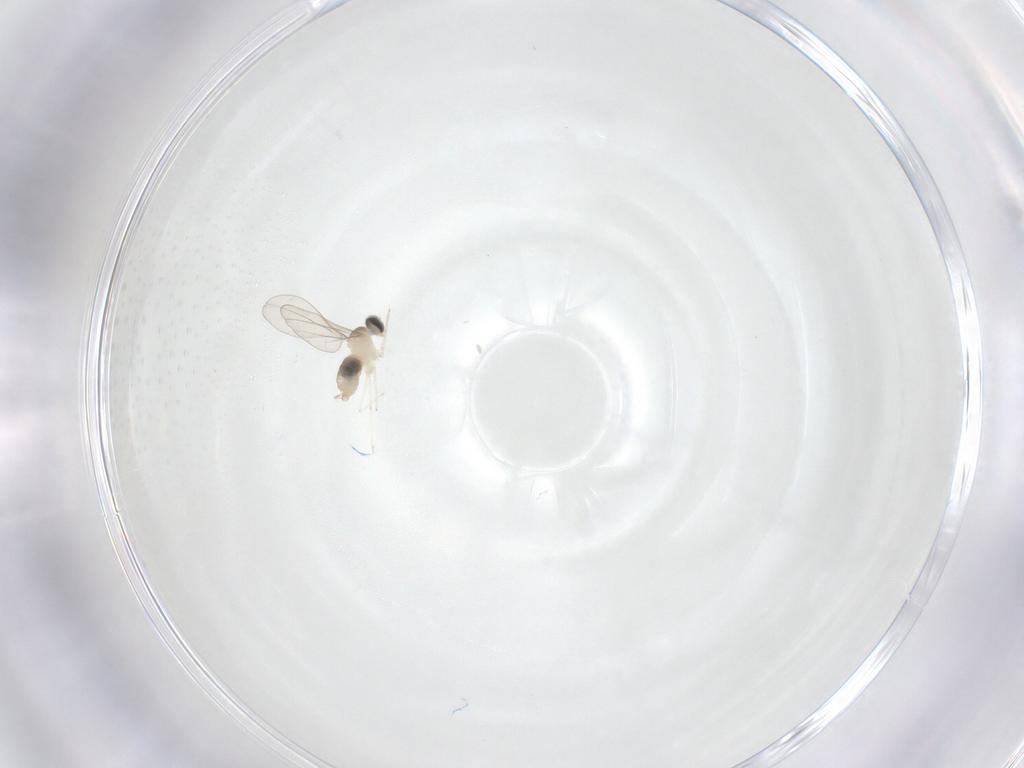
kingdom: Animalia
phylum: Arthropoda
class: Insecta
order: Diptera
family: Cecidomyiidae
